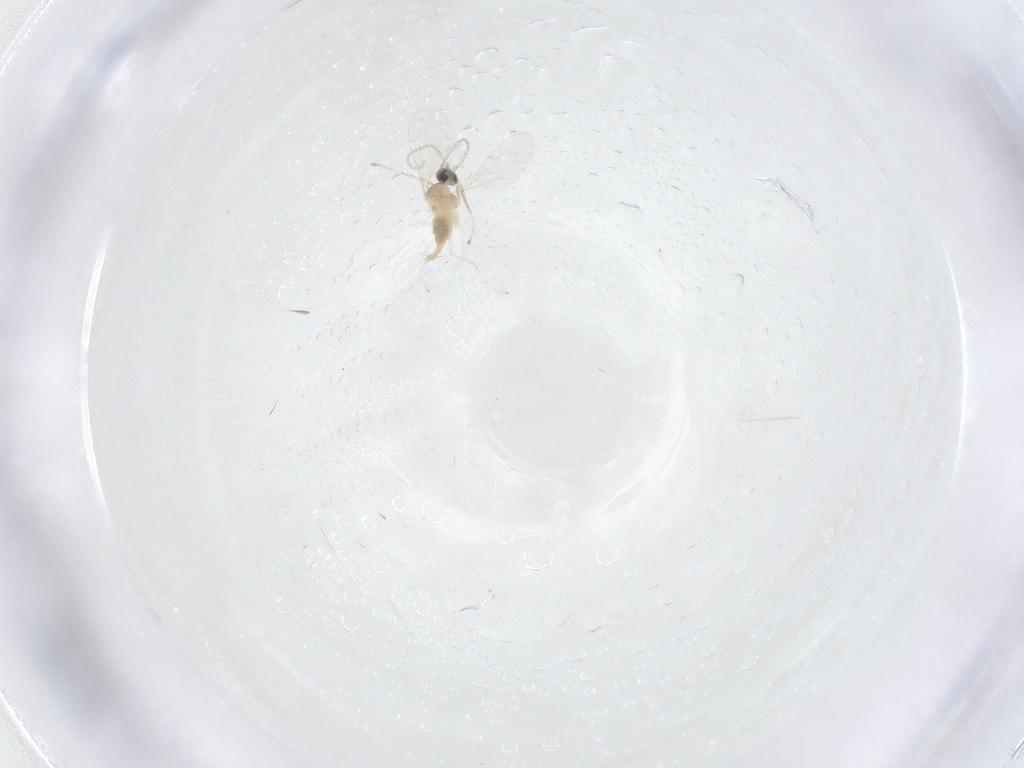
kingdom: Animalia
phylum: Arthropoda
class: Insecta
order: Diptera
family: Cecidomyiidae
